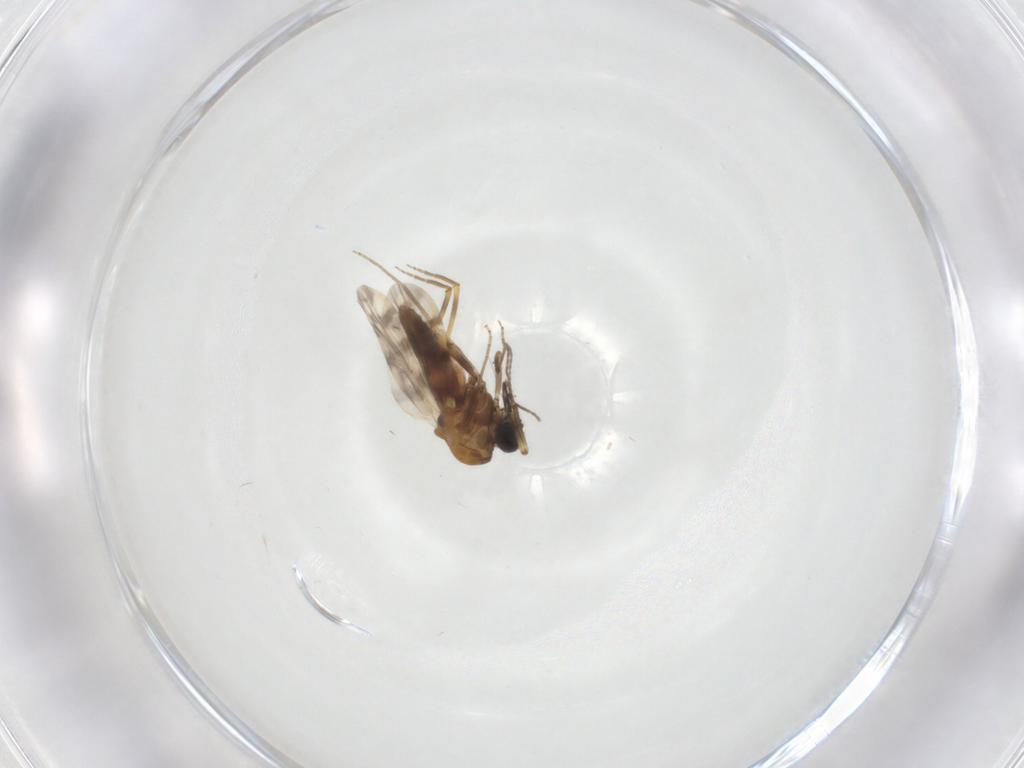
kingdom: Animalia
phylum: Arthropoda
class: Insecta
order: Diptera
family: Ceratopogonidae
